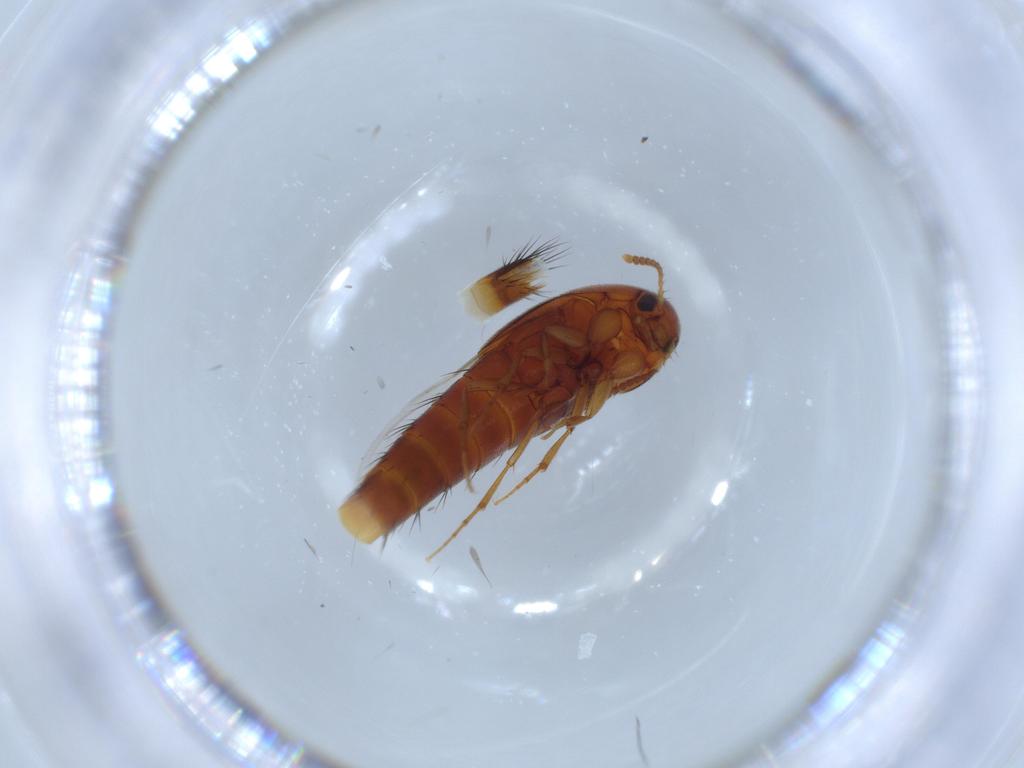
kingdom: Animalia
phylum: Arthropoda
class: Insecta
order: Coleoptera
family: Staphylinidae
